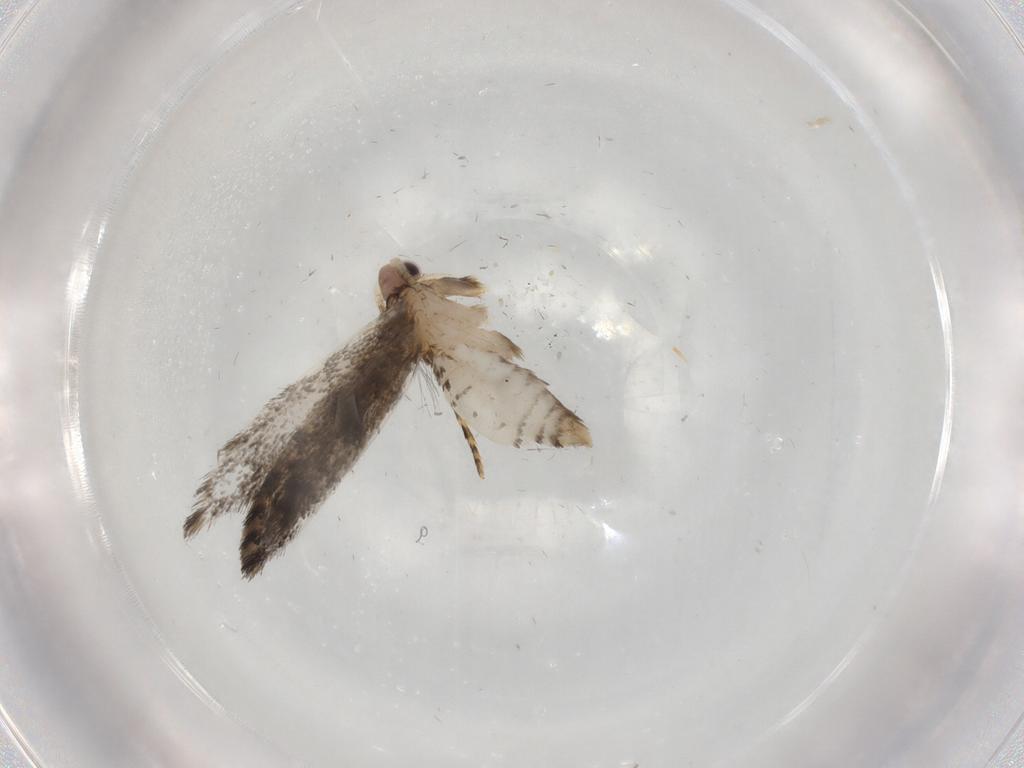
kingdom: Animalia
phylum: Arthropoda
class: Insecta
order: Lepidoptera
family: Tineidae
